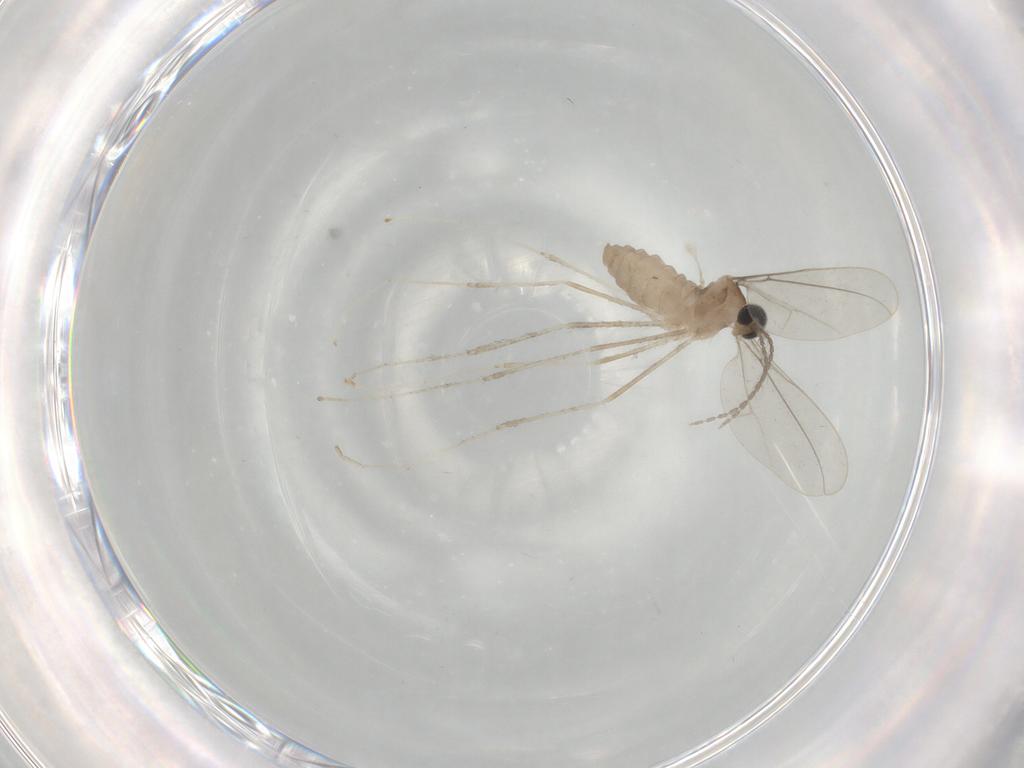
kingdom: Animalia
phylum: Arthropoda
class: Insecta
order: Diptera
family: Cecidomyiidae
